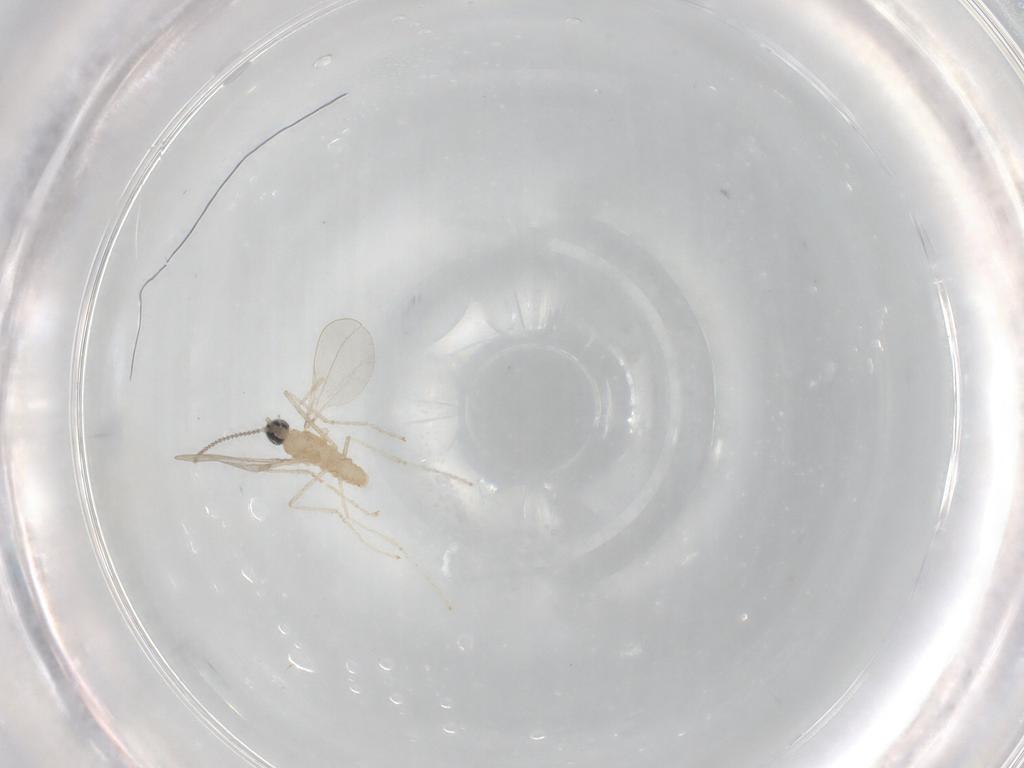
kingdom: Animalia
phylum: Arthropoda
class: Insecta
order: Diptera
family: Cecidomyiidae
